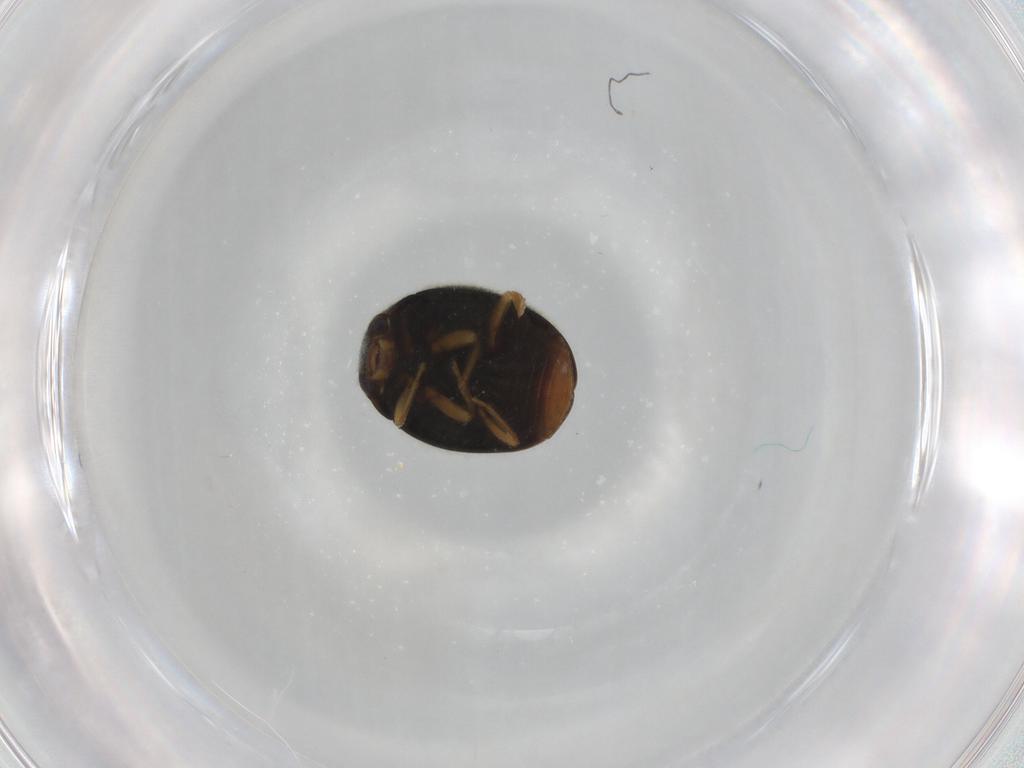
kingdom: Animalia
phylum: Arthropoda
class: Insecta
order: Coleoptera
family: Coccinellidae
